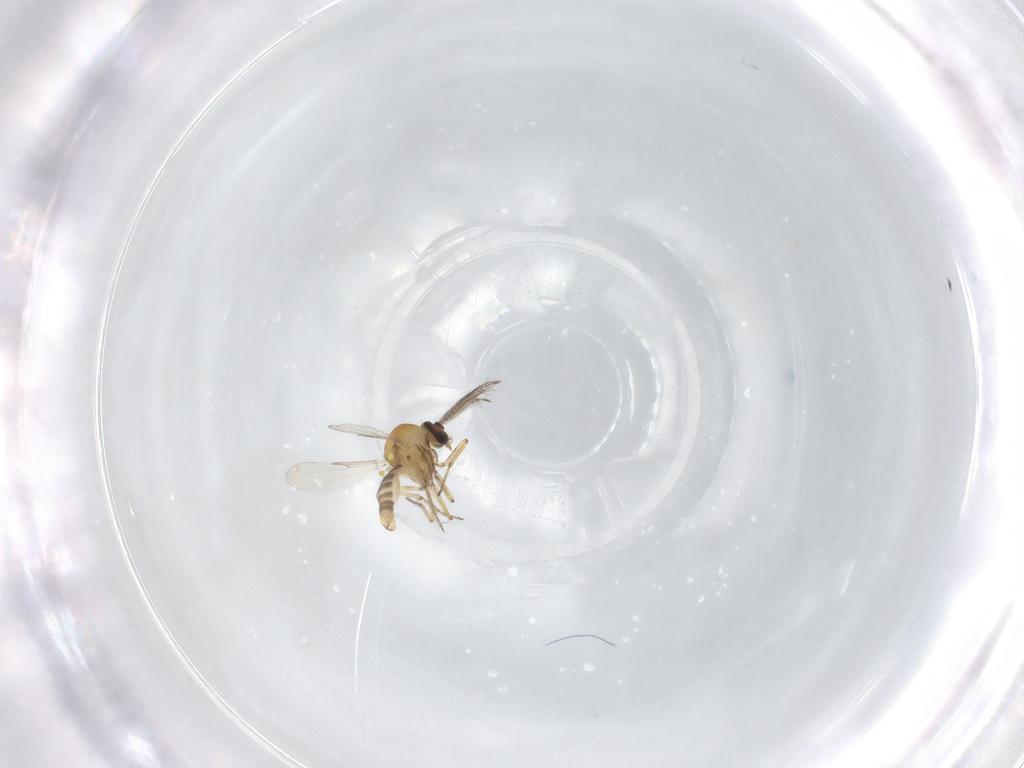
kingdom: Animalia
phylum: Arthropoda
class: Insecta
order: Diptera
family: Ceratopogonidae
